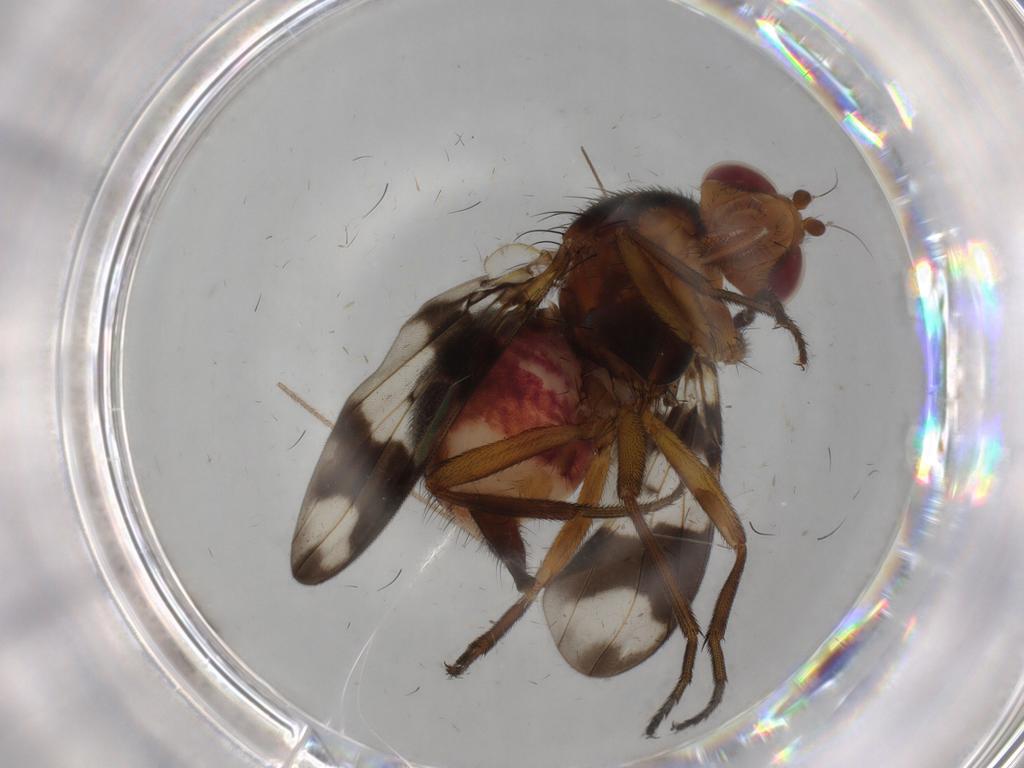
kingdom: Animalia
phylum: Arthropoda
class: Insecta
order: Diptera
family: Richardiidae
